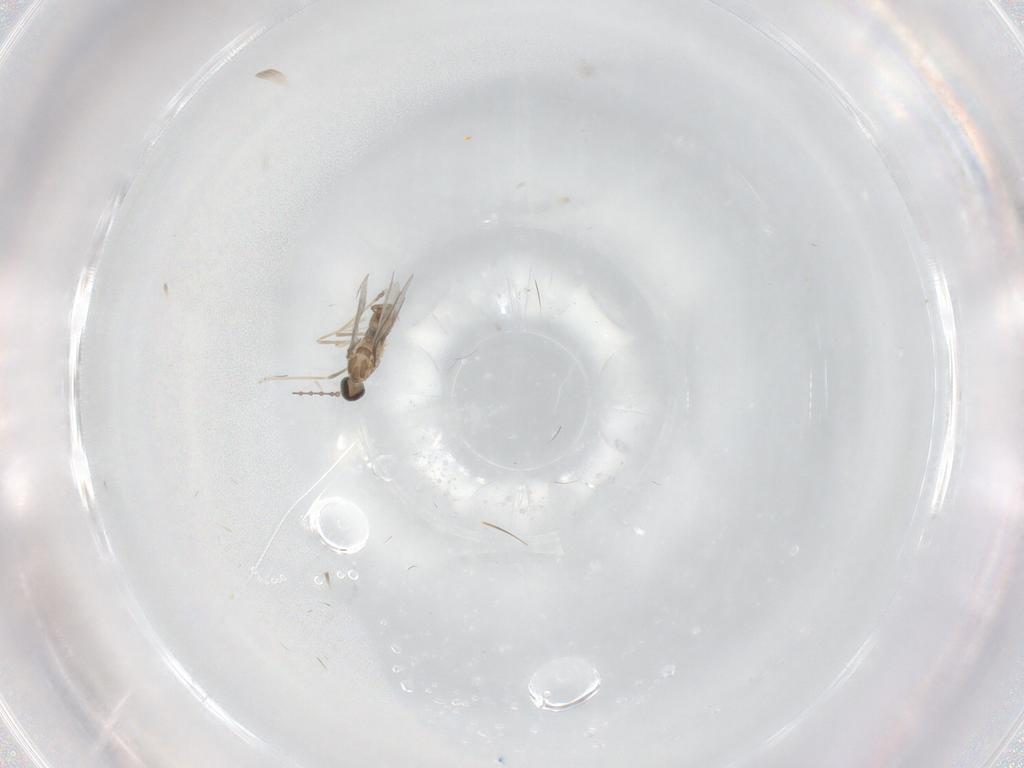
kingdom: Animalia
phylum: Arthropoda
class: Insecta
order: Diptera
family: Cecidomyiidae
